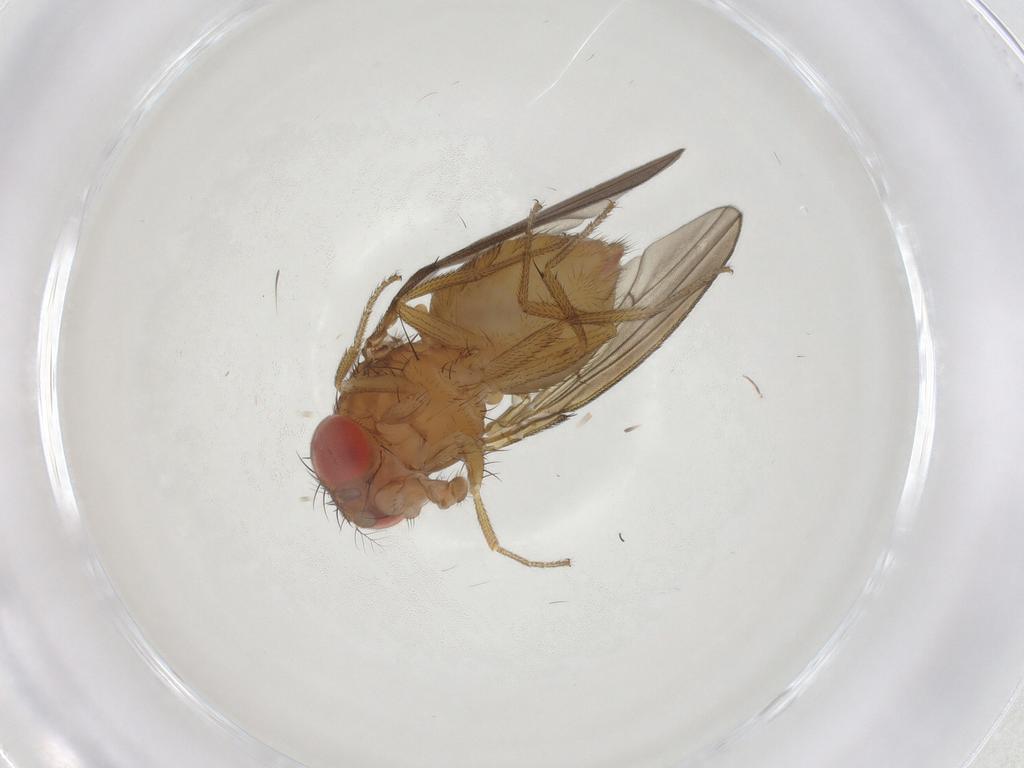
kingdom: Animalia
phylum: Arthropoda
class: Insecta
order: Diptera
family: Drosophilidae
